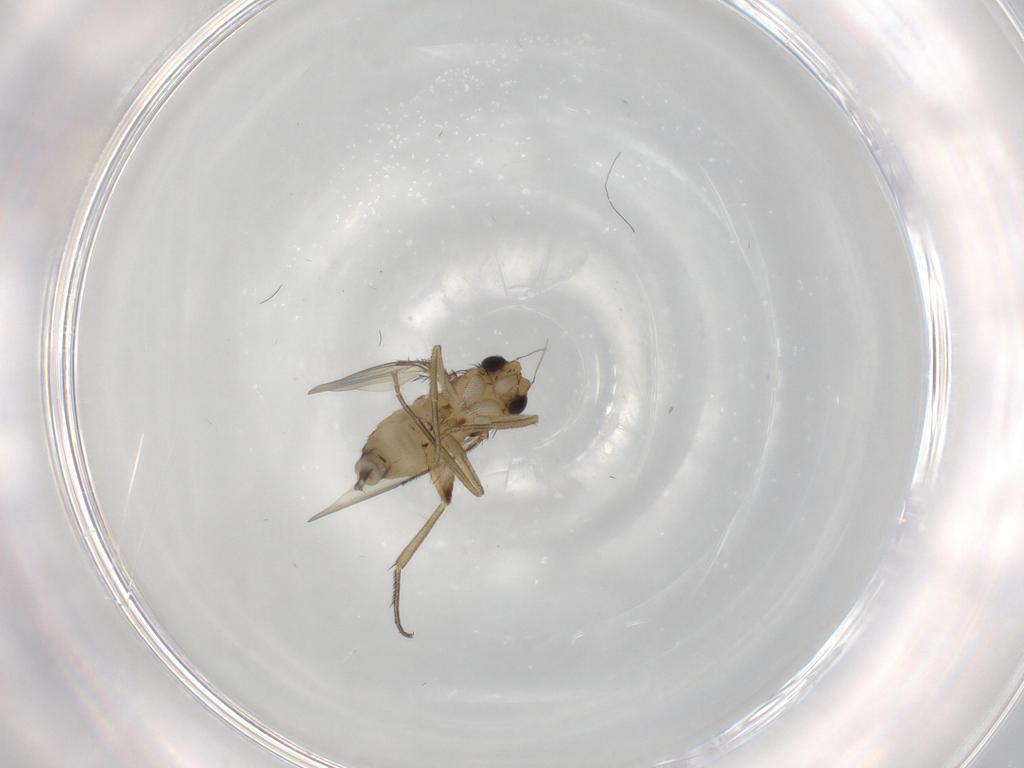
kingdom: Animalia
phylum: Arthropoda
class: Insecta
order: Diptera
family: Phoridae
